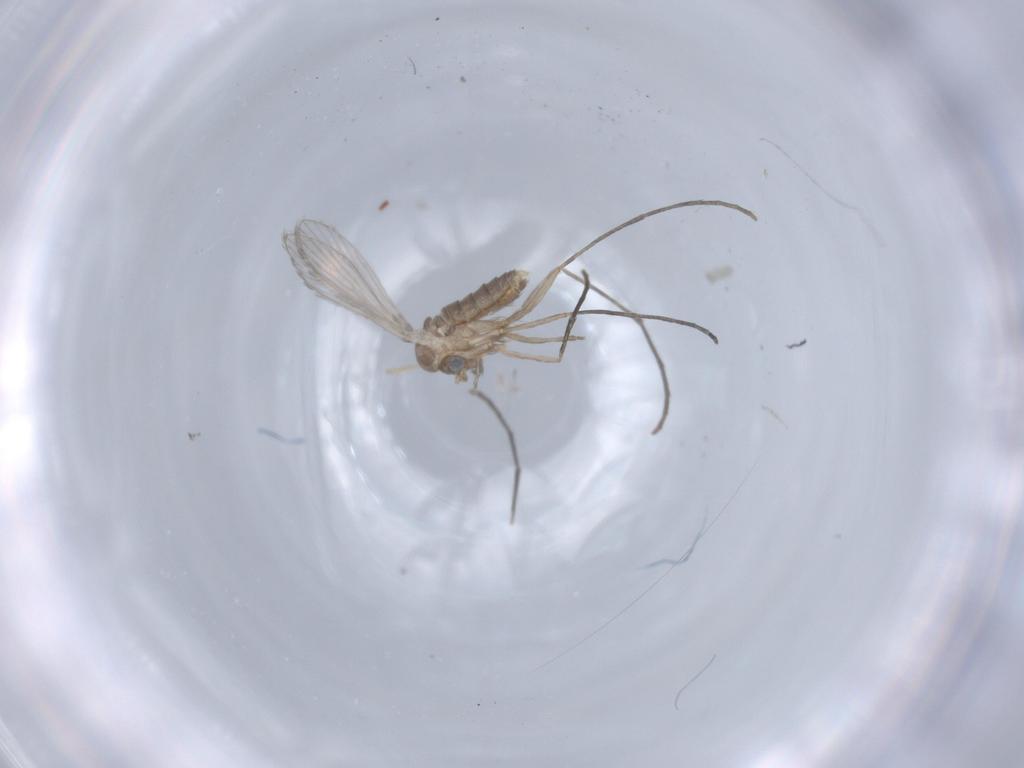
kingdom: Animalia
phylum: Arthropoda
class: Insecta
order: Diptera
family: Psychodidae
